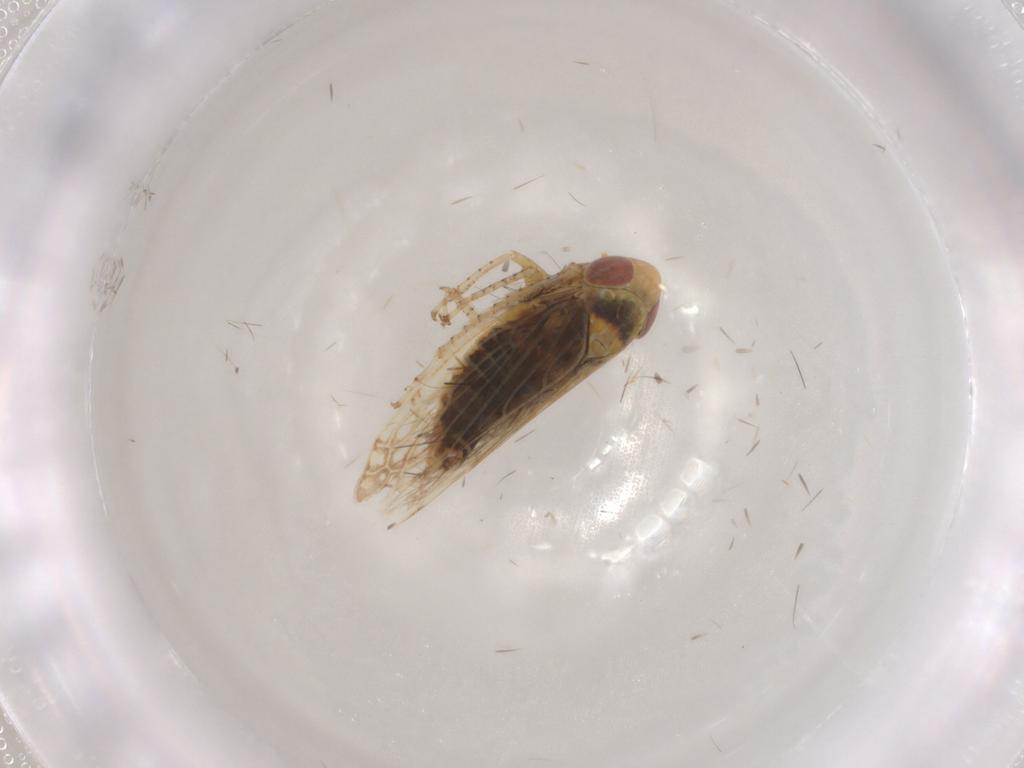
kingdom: Animalia
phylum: Arthropoda
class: Insecta
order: Hemiptera
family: Cicadellidae
